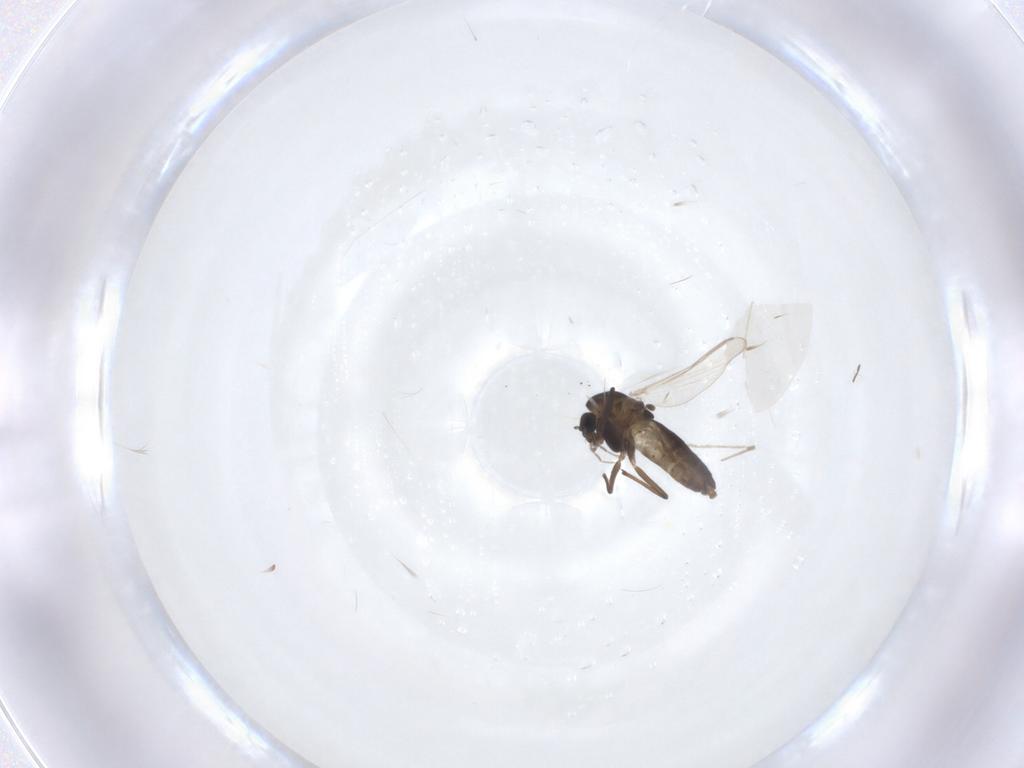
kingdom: Animalia
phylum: Arthropoda
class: Insecta
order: Diptera
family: Chironomidae
